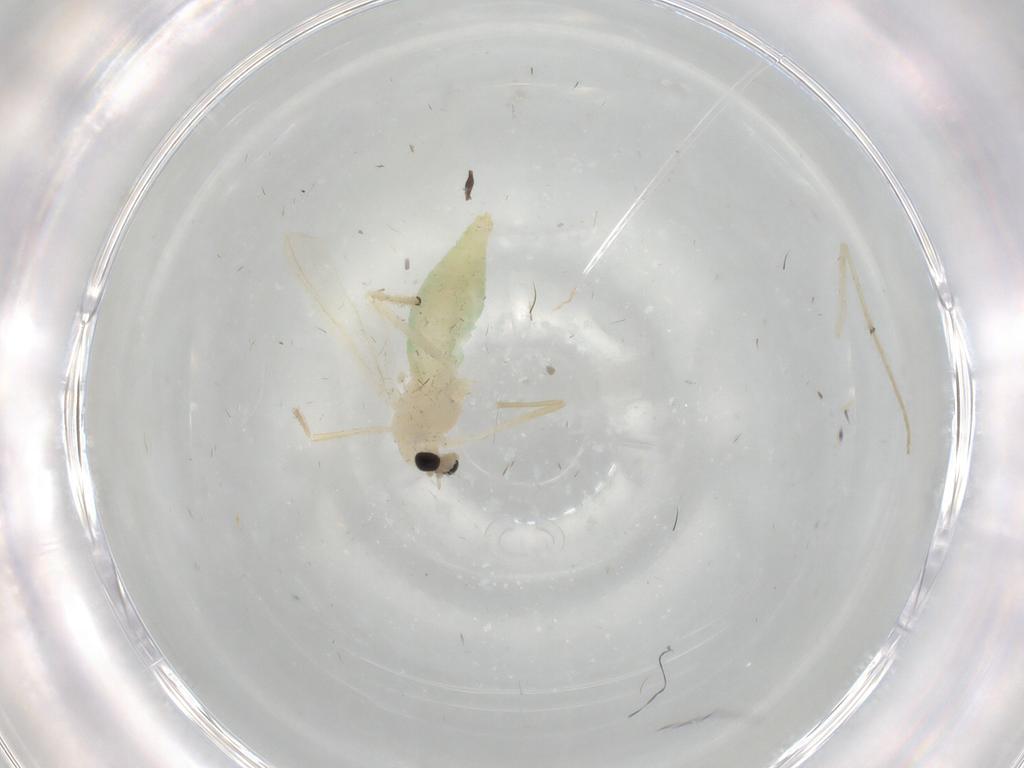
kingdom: Animalia
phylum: Arthropoda
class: Insecta
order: Diptera
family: Chironomidae
